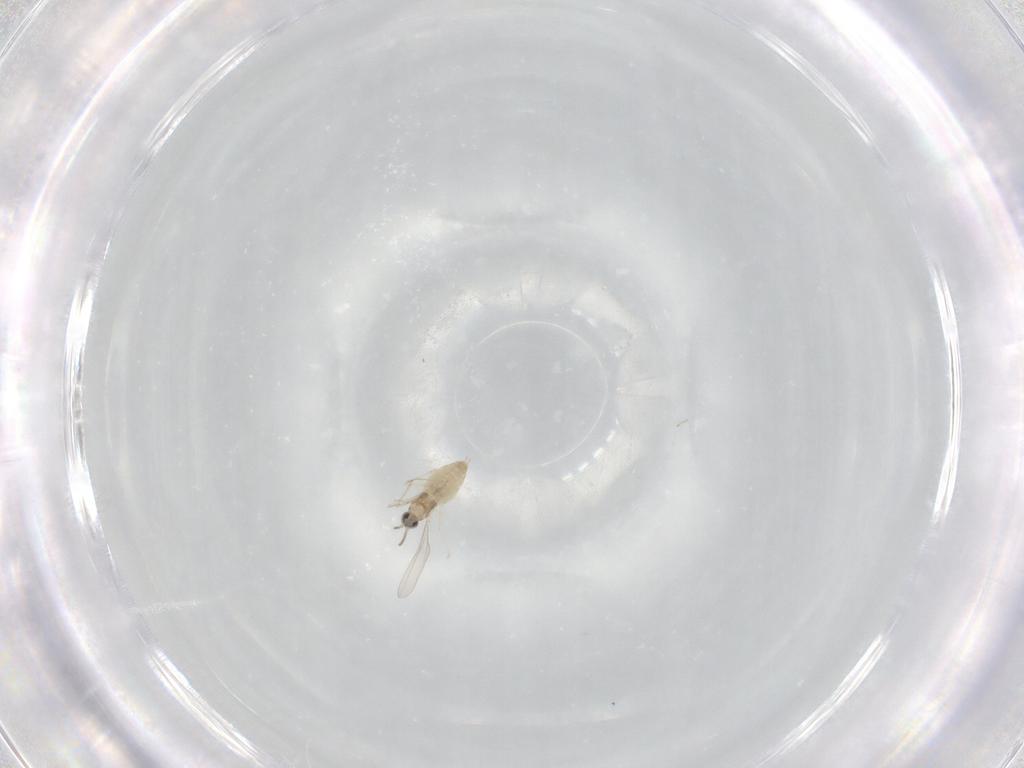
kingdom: Animalia
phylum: Arthropoda
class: Insecta
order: Diptera
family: Cecidomyiidae
